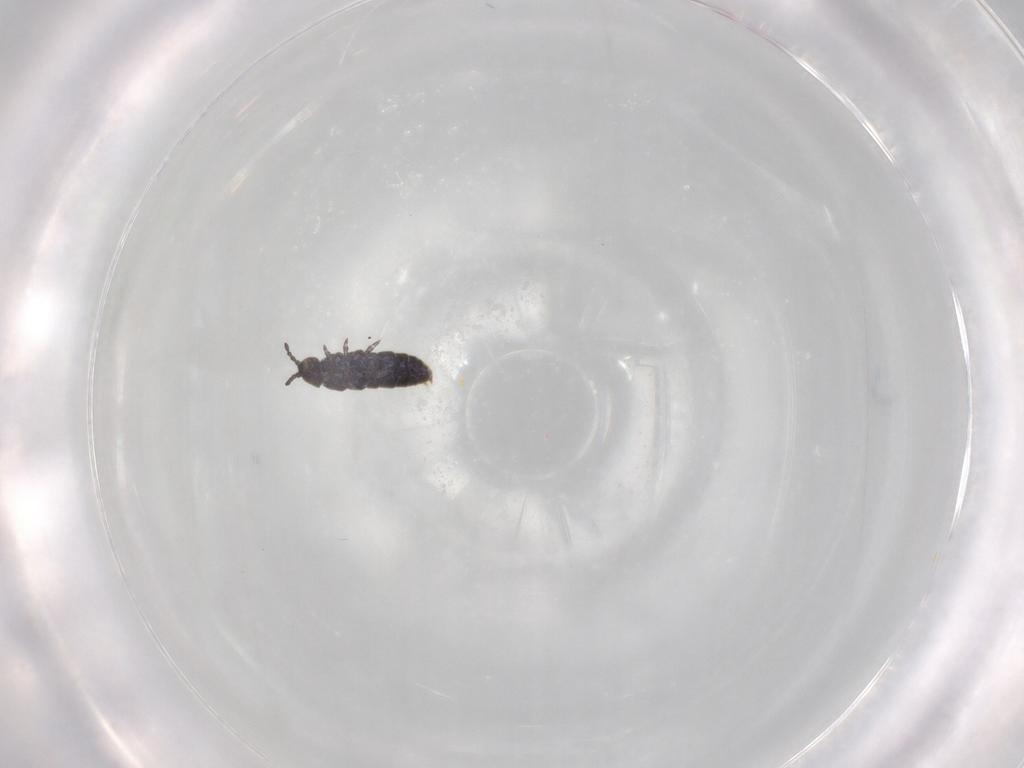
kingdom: Animalia
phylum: Arthropoda
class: Collembola
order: Entomobryomorpha
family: Isotomidae
